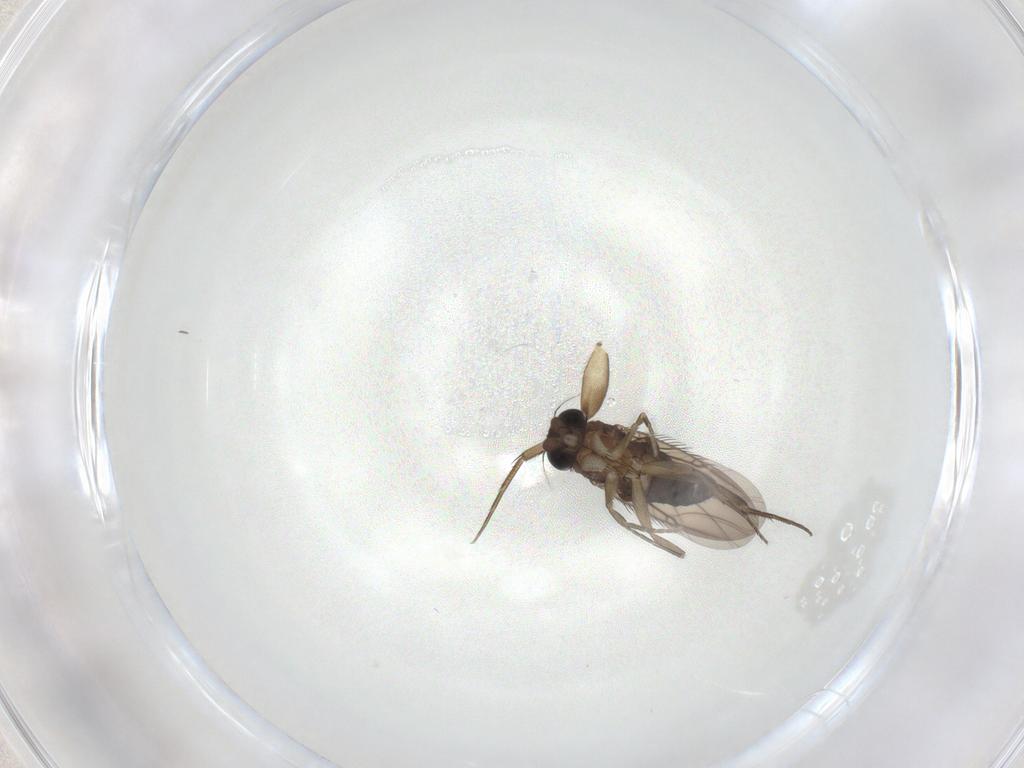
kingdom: Animalia
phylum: Arthropoda
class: Insecta
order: Diptera
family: Phoridae
